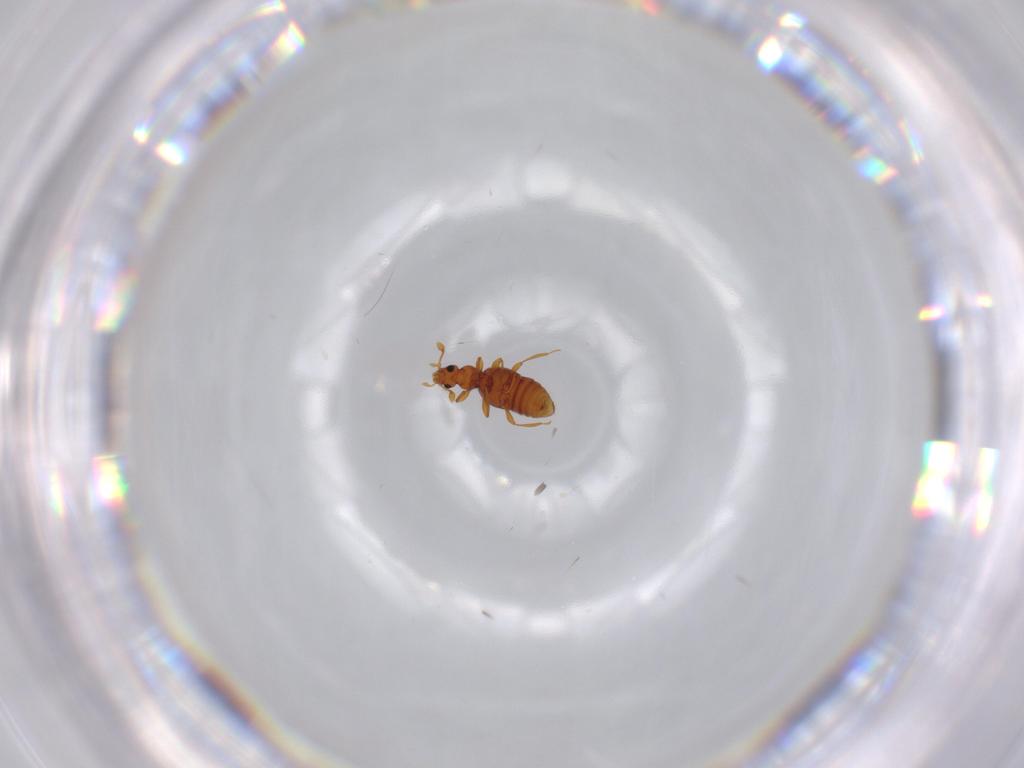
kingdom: Animalia
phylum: Arthropoda
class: Insecta
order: Coleoptera
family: Staphylinidae
